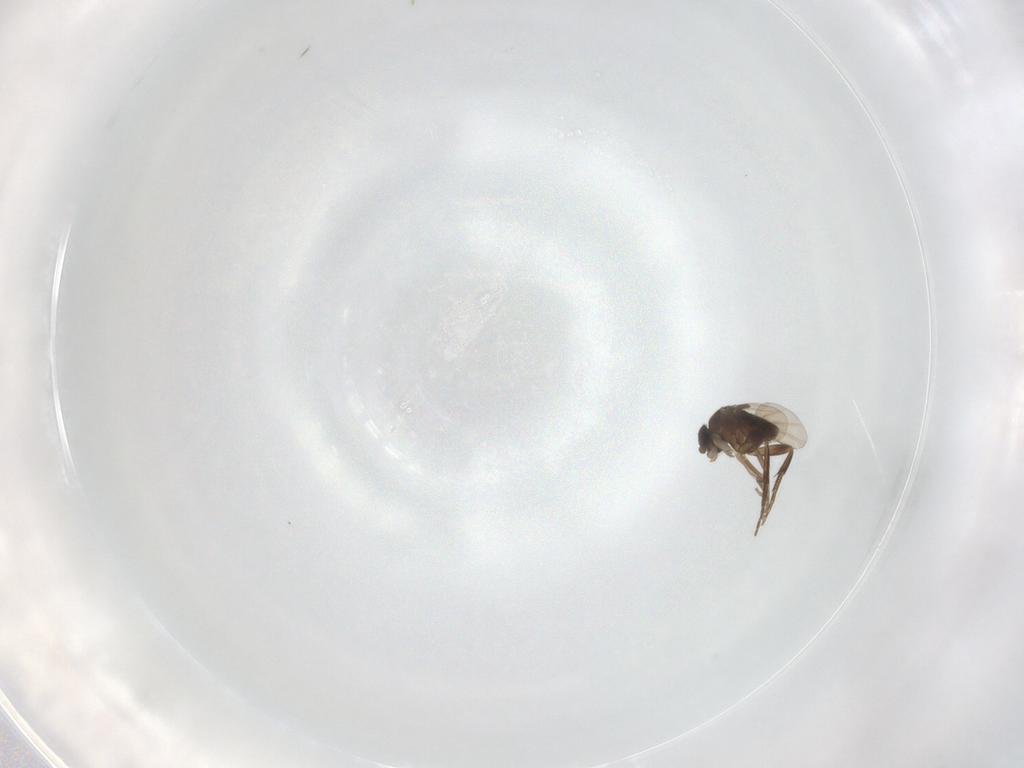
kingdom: Animalia
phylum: Arthropoda
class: Insecta
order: Diptera
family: Phoridae
